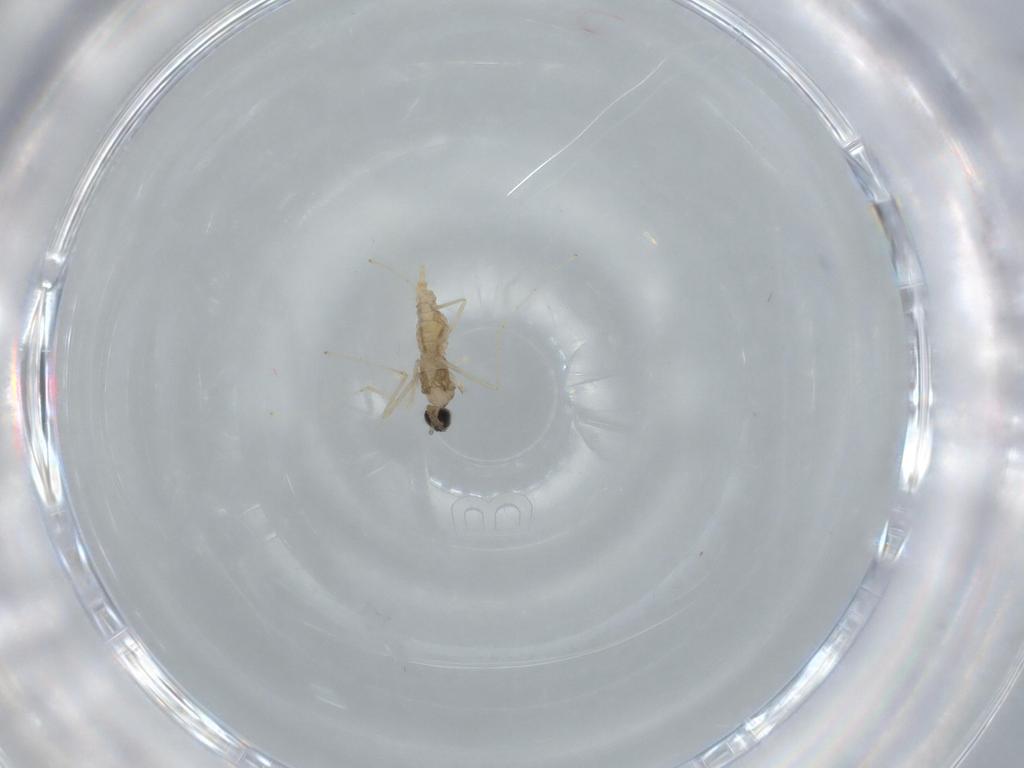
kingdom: Animalia
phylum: Arthropoda
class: Insecta
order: Diptera
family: Cecidomyiidae
